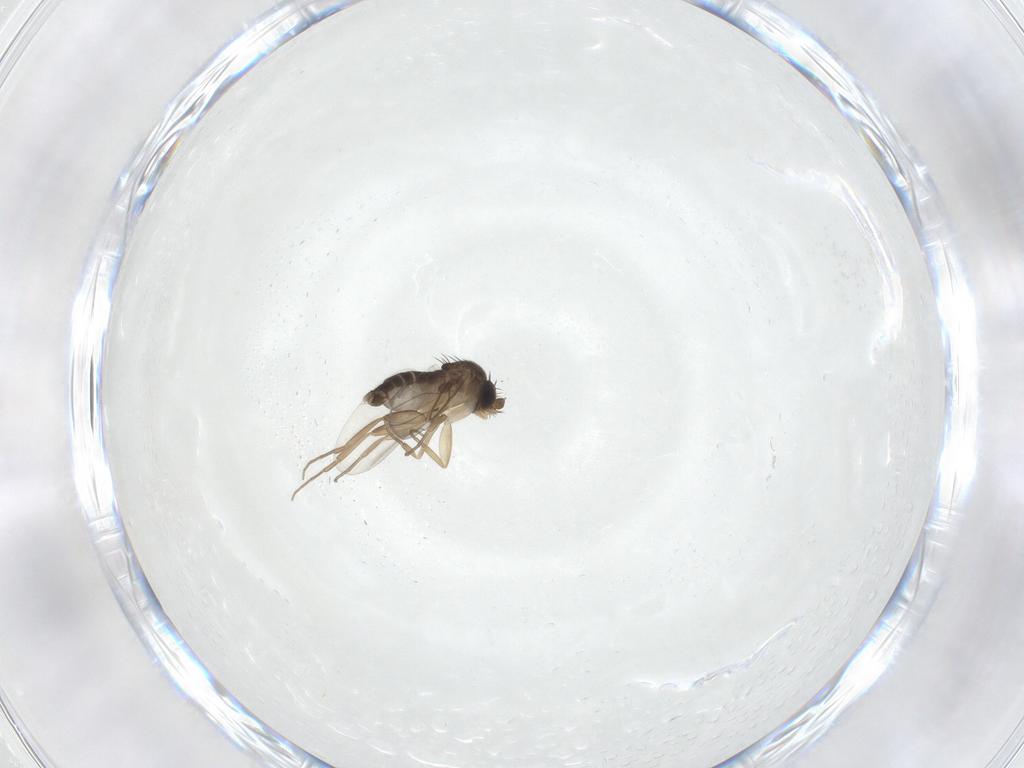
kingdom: Animalia
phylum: Arthropoda
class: Insecta
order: Diptera
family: Phoridae
